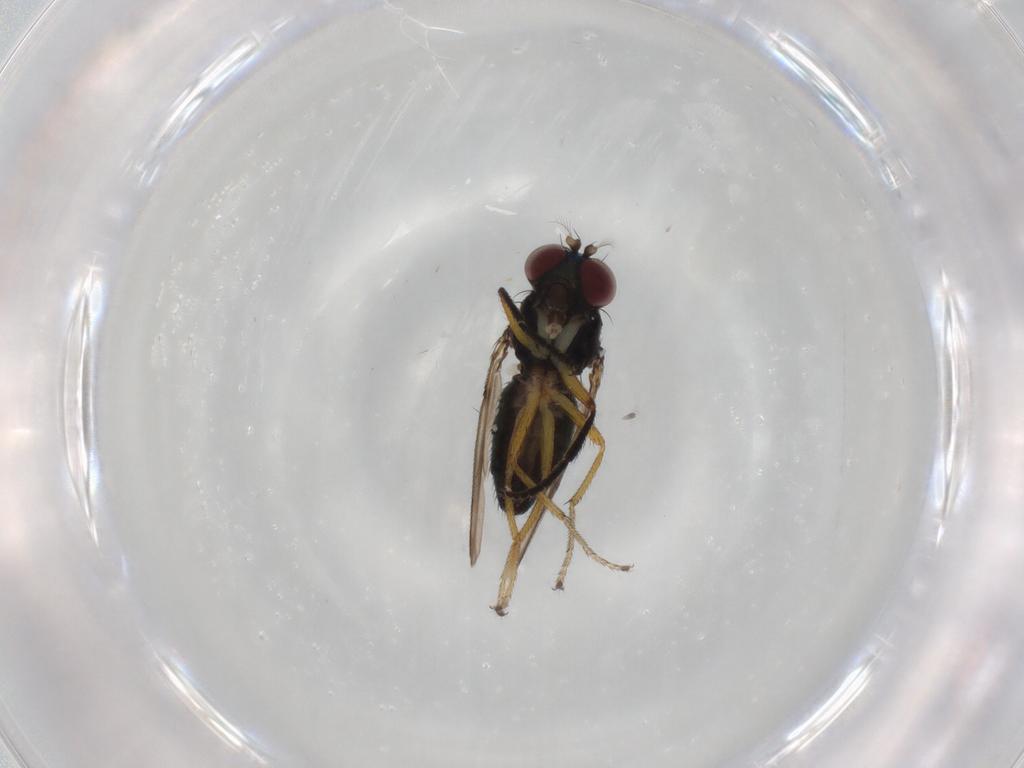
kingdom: Animalia
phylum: Arthropoda
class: Insecta
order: Diptera
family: Ephydridae
